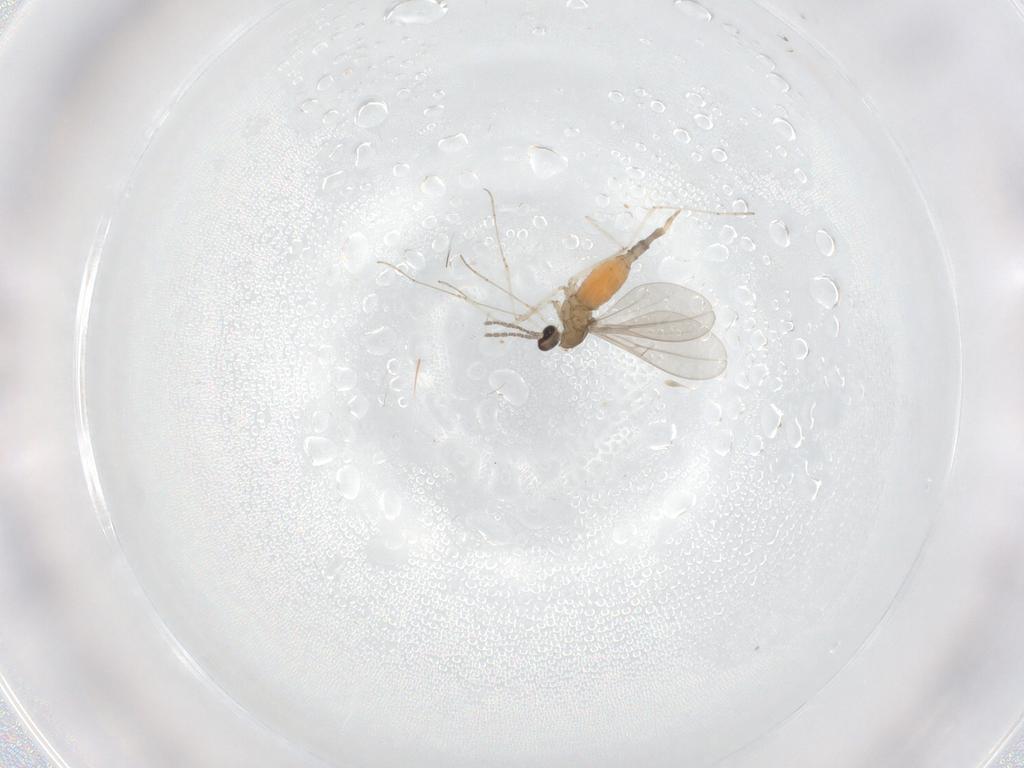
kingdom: Animalia
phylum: Arthropoda
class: Insecta
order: Diptera
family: Cecidomyiidae
